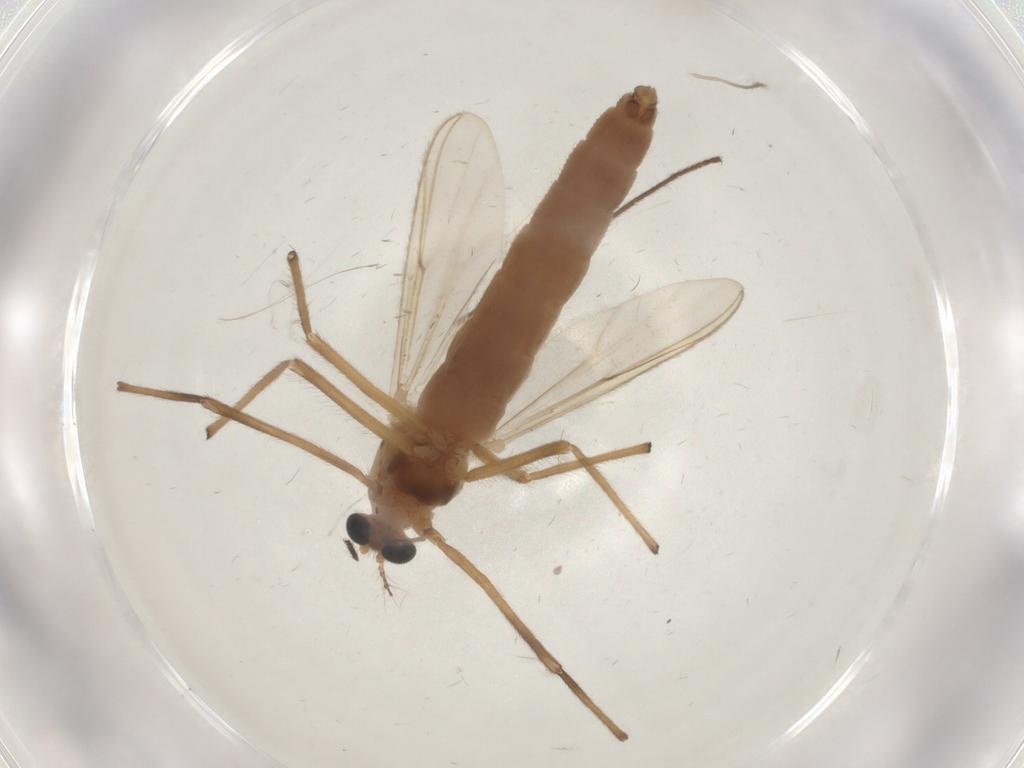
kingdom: Animalia
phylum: Arthropoda
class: Insecta
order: Diptera
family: Chironomidae
